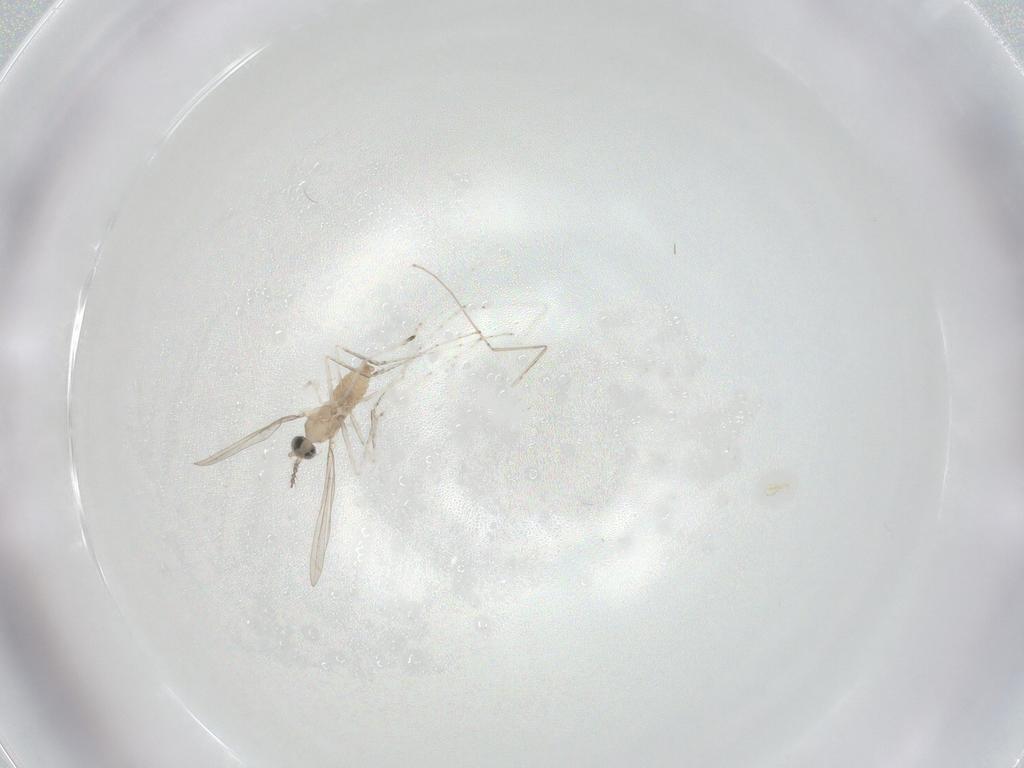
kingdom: Animalia
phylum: Arthropoda
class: Insecta
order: Diptera
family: Cecidomyiidae
